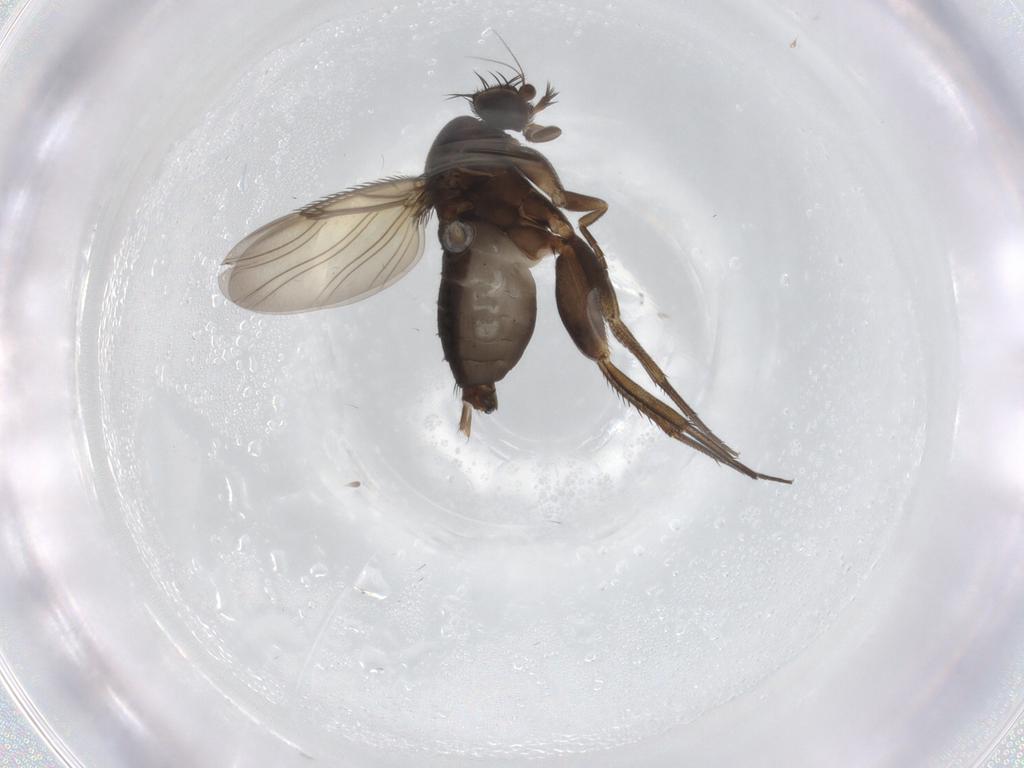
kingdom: Animalia
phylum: Arthropoda
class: Insecta
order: Diptera
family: Phoridae
